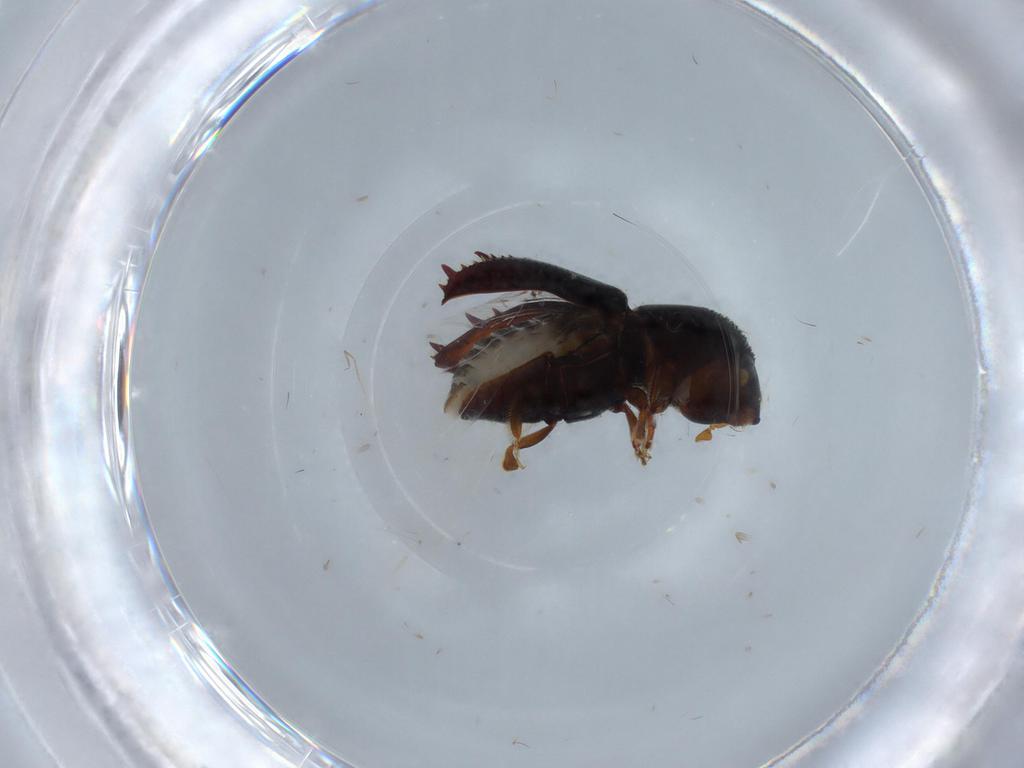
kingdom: Animalia
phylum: Arthropoda
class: Insecta
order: Coleoptera
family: Curculionidae
